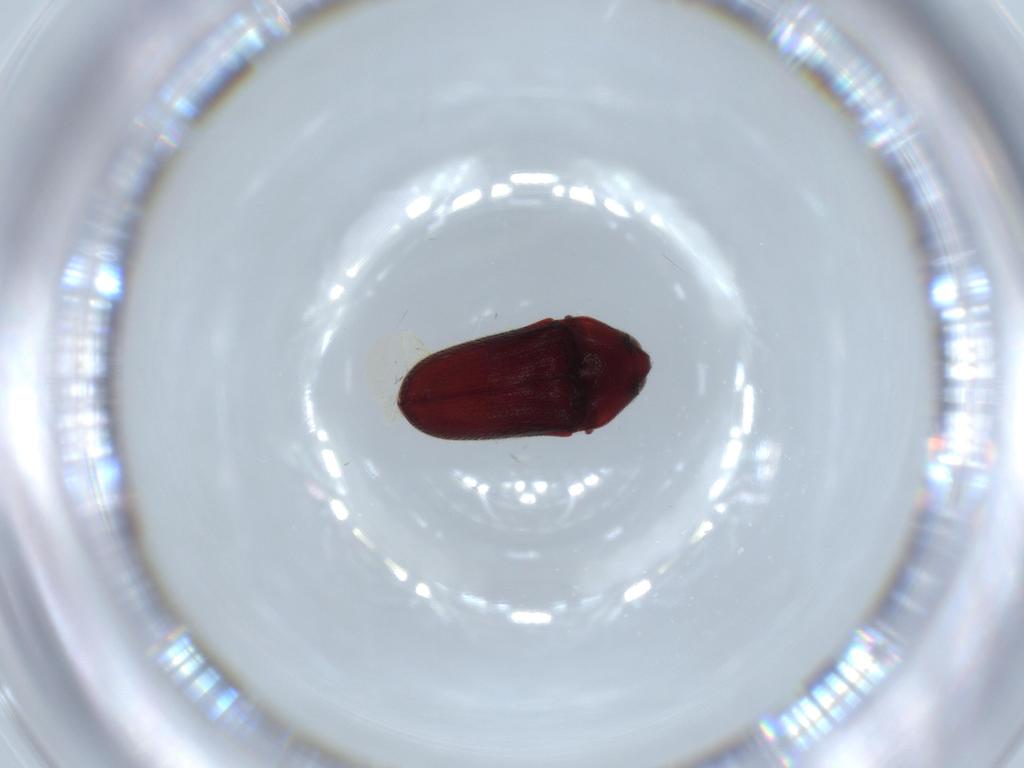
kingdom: Animalia
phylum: Arthropoda
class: Insecta
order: Coleoptera
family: Throscidae
